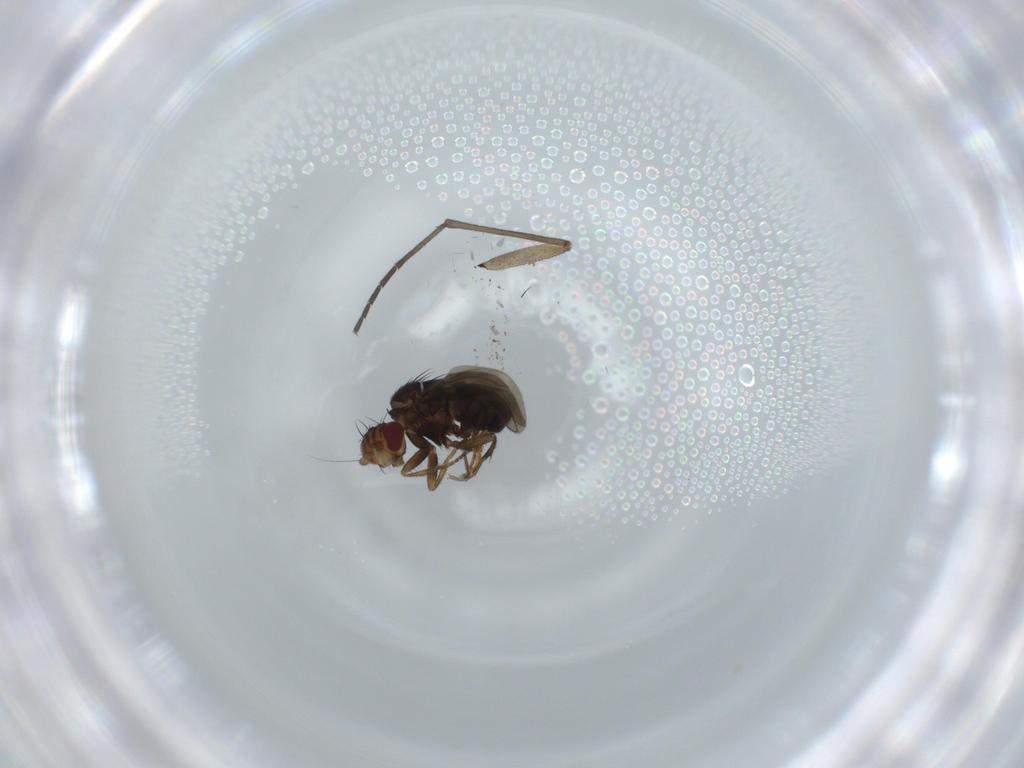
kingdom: Animalia
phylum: Arthropoda
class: Insecta
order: Diptera
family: Sciaridae
